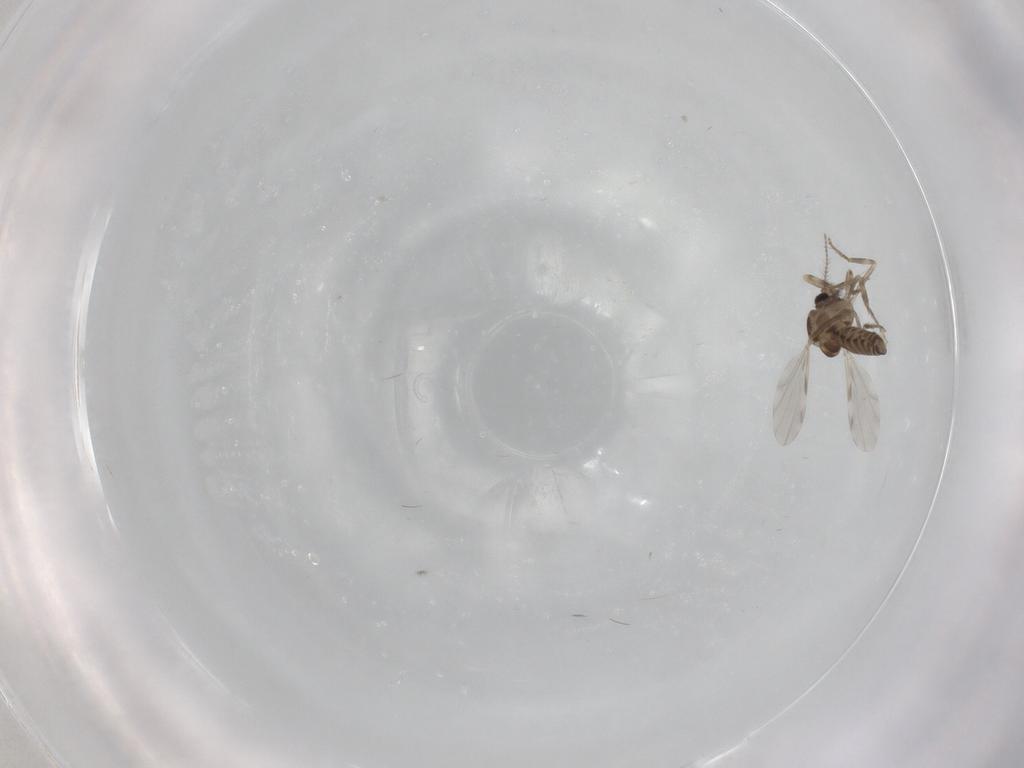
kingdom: Animalia
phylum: Arthropoda
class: Insecta
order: Diptera
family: Ceratopogonidae
